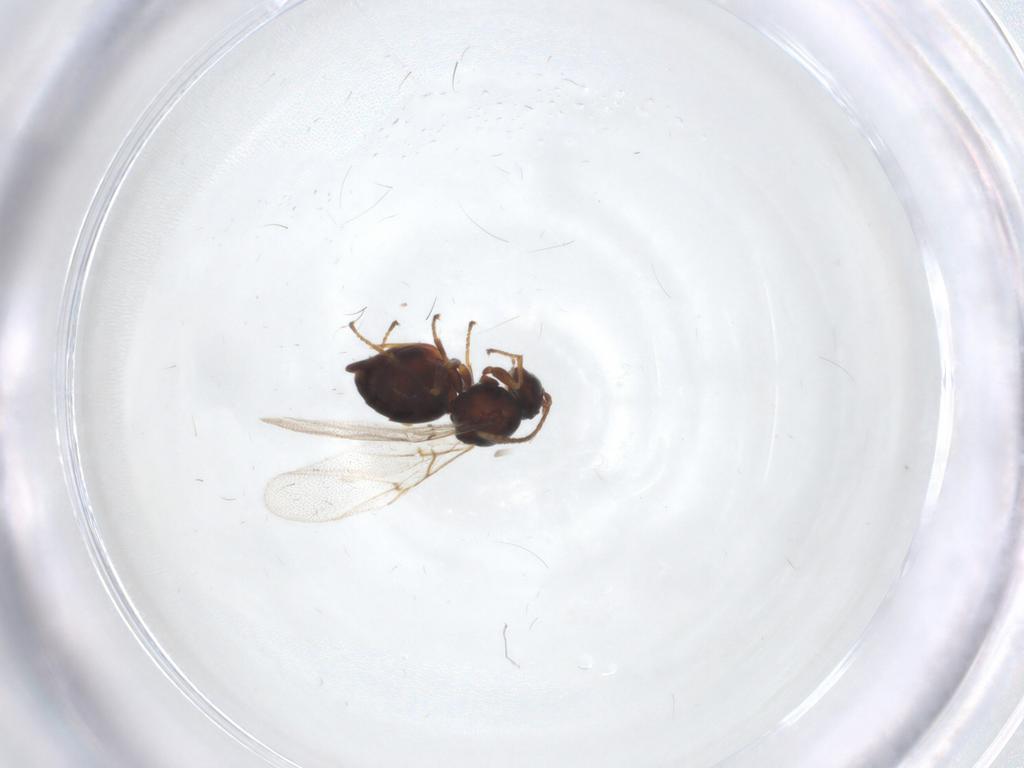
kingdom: Animalia
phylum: Arthropoda
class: Insecta
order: Hymenoptera
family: Cynipidae
